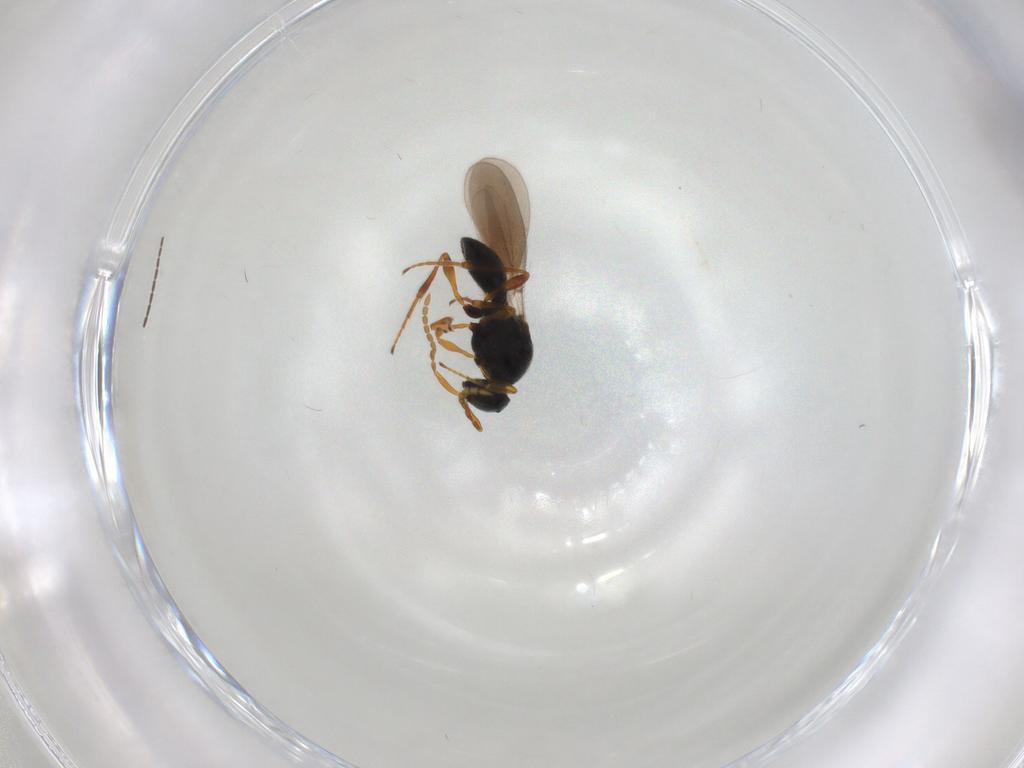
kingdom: Animalia
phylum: Arthropoda
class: Insecta
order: Hymenoptera
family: Platygastridae
